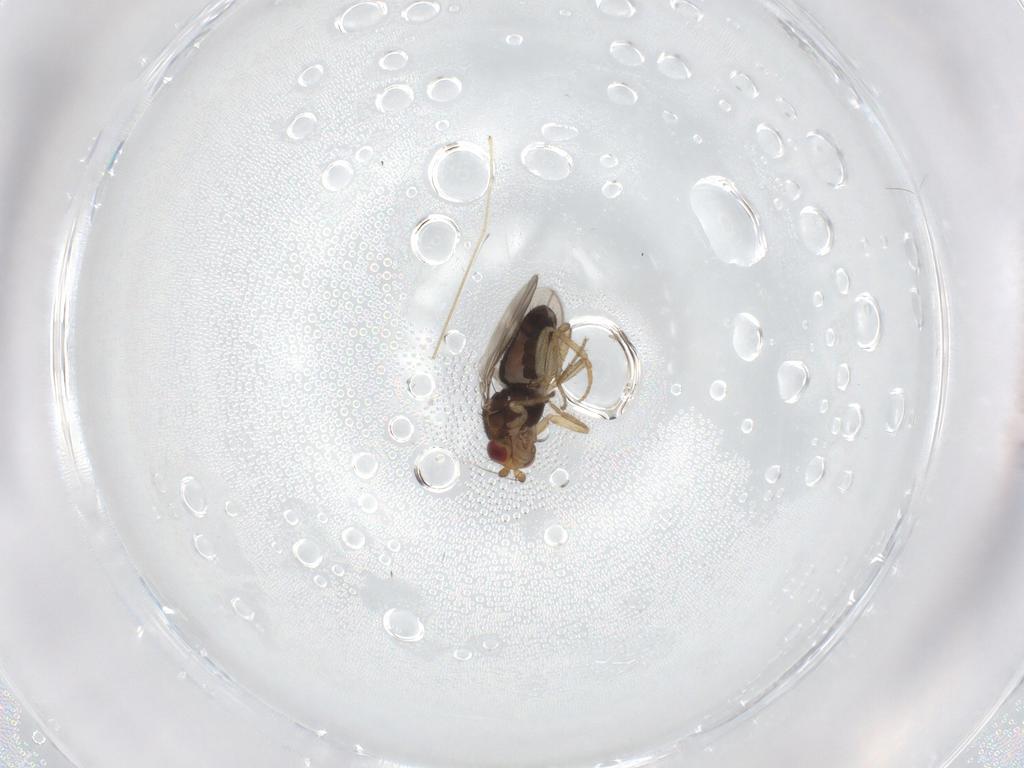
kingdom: Animalia
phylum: Arthropoda
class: Insecta
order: Diptera
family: Sphaeroceridae
